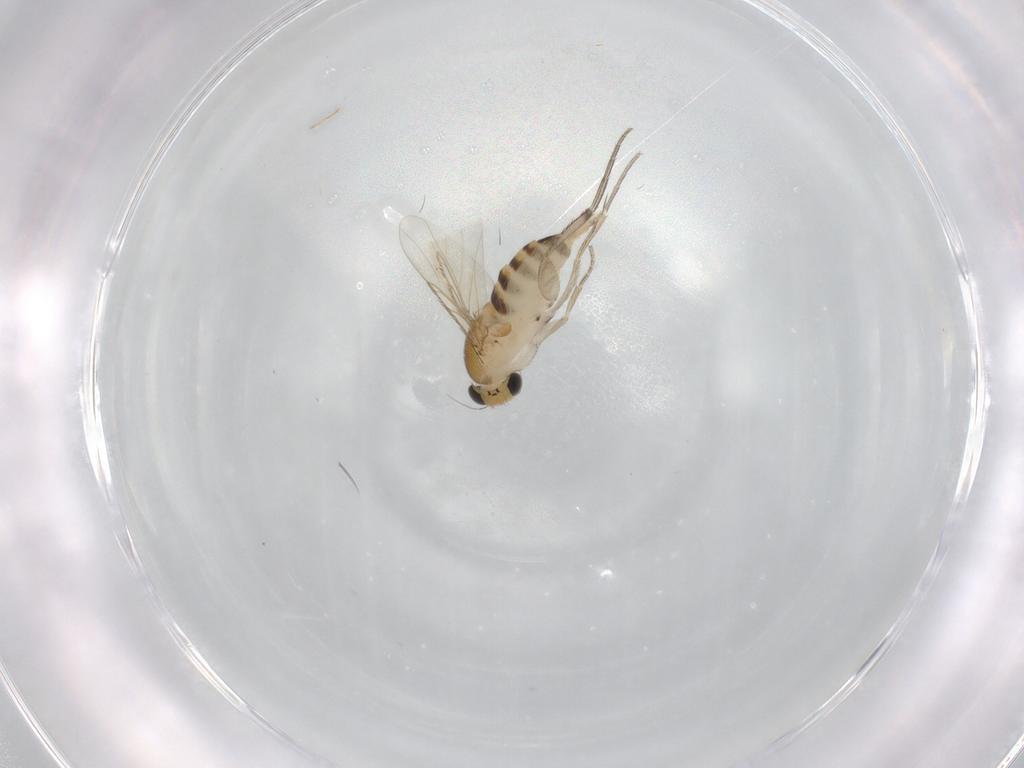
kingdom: Animalia
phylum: Arthropoda
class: Insecta
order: Diptera
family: Phoridae
